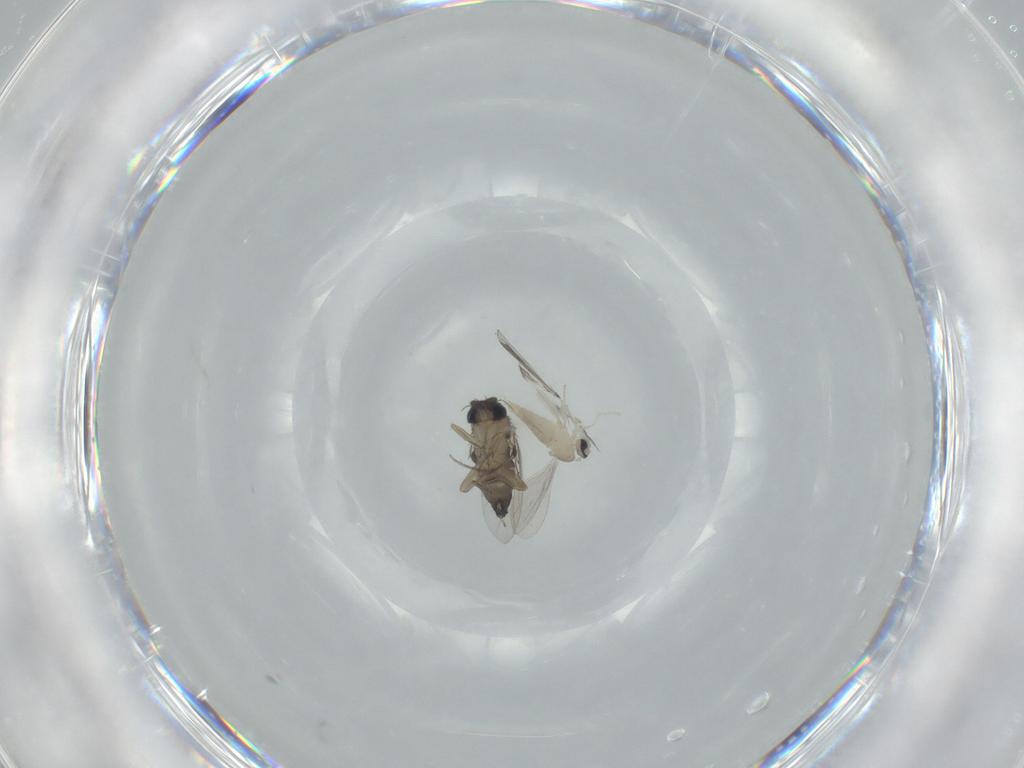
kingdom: Animalia
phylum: Arthropoda
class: Insecta
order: Diptera
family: Phoridae
